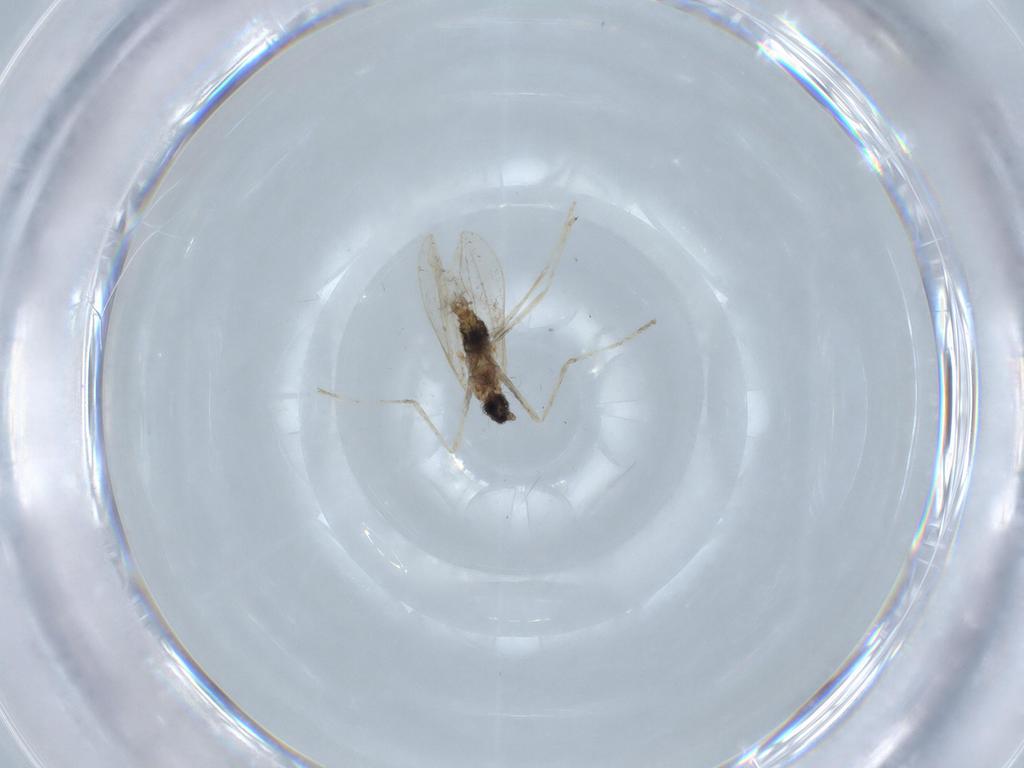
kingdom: Animalia
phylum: Arthropoda
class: Insecta
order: Diptera
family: Cecidomyiidae
